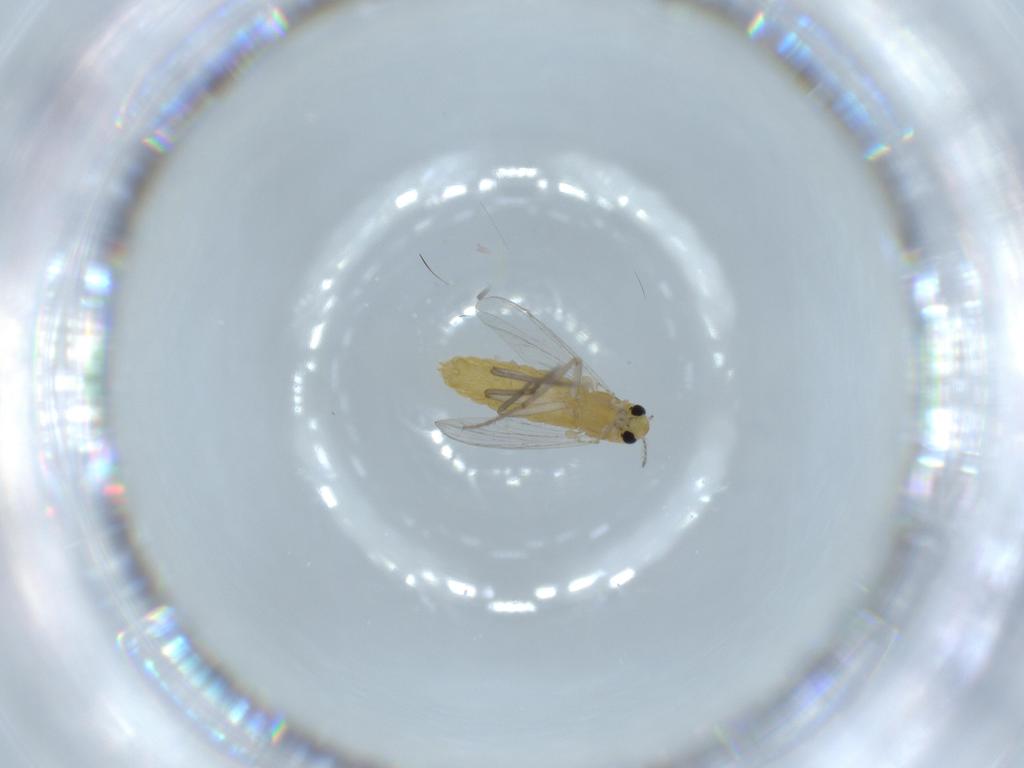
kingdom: Animalia
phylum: Arthropoda
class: Insecta
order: Diptera
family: Chironomidae
